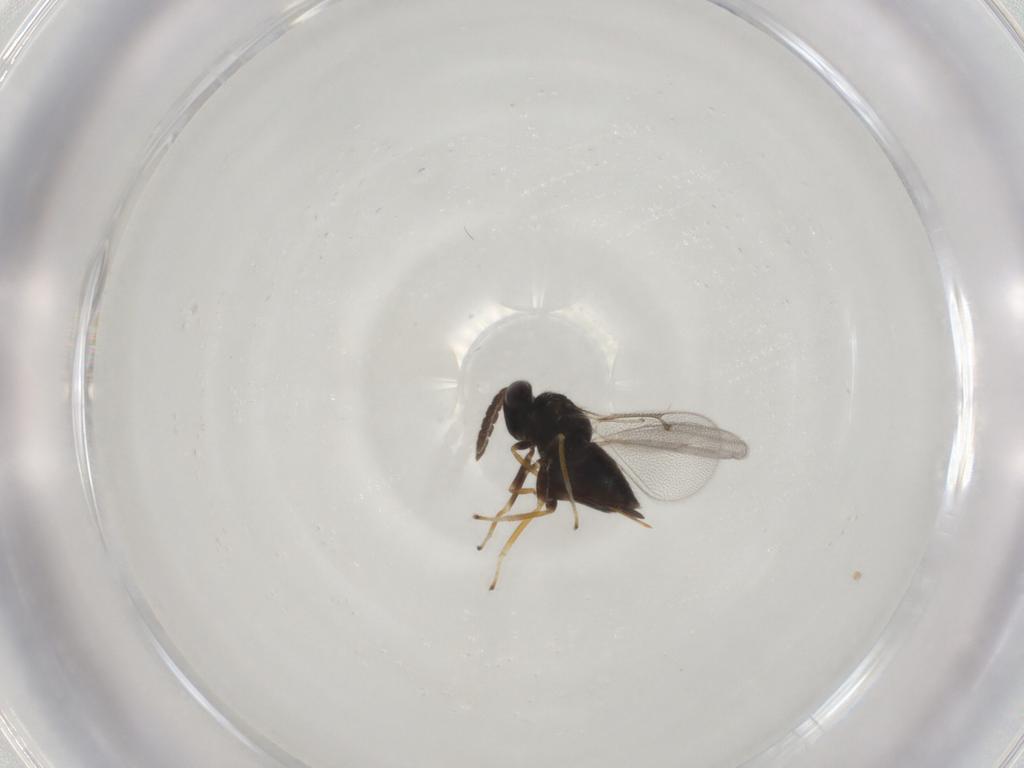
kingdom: Animalia
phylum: Arthropoda
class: Insecta
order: Hymenoptera
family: Eulophidae
